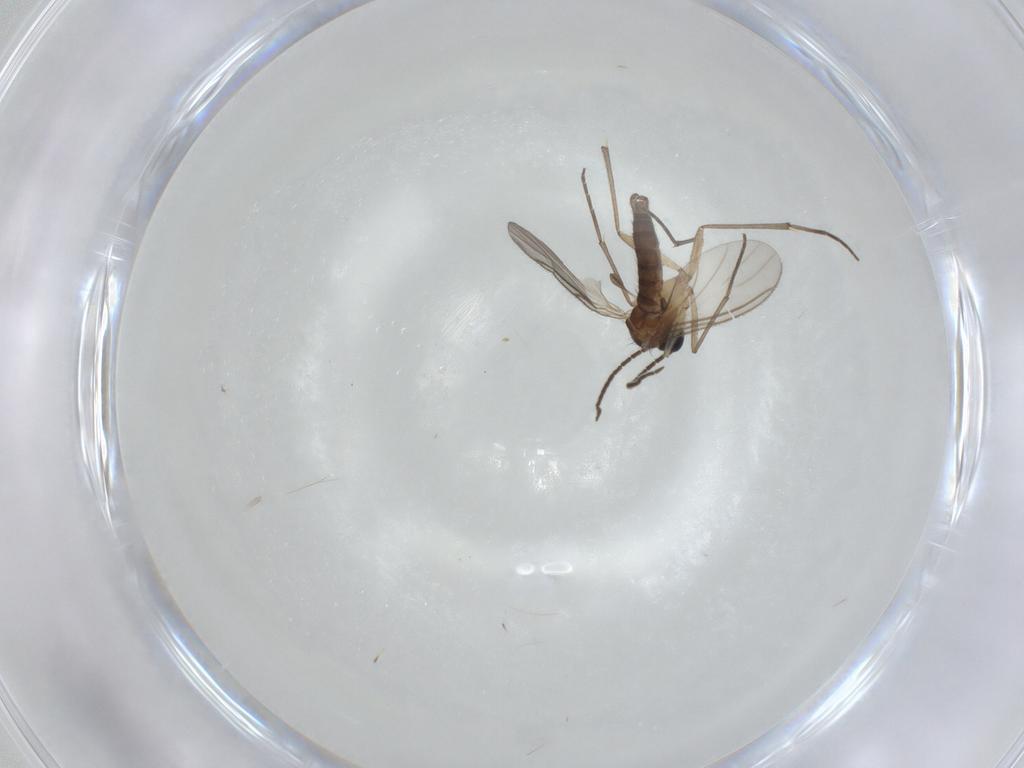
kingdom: Animalia
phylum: Arthropoda
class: Insecta
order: Diptera
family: Sciaridae
